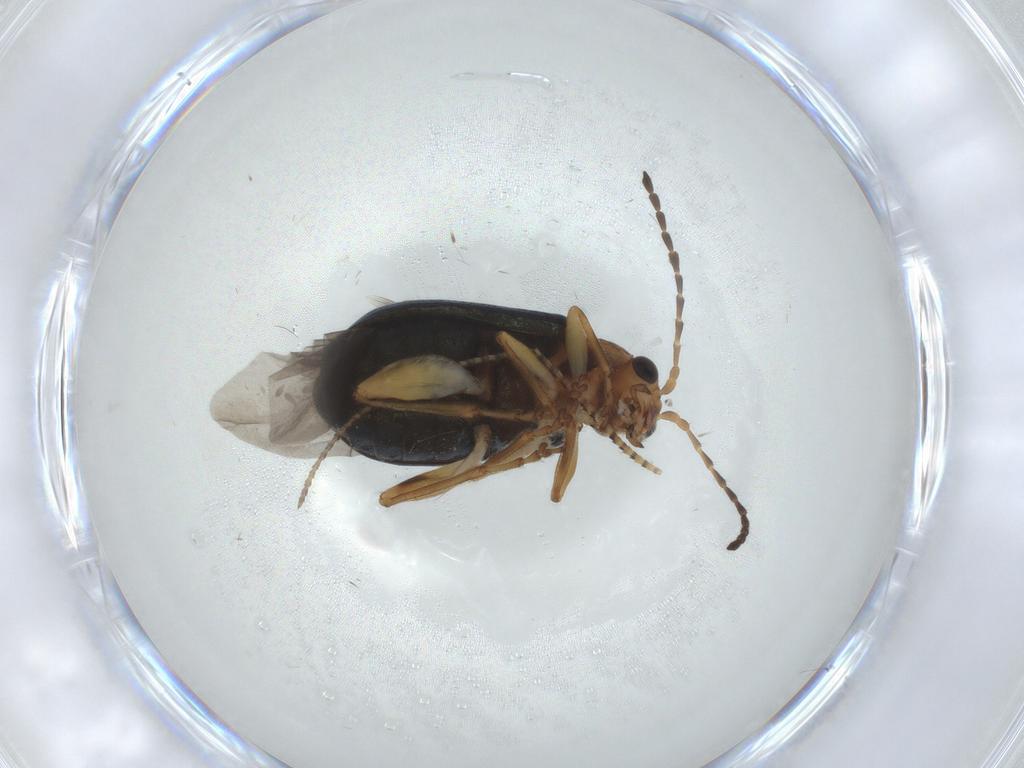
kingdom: Animalia
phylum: Arthropoda
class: Insecta
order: Coleoptera
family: Chrysomelidae
